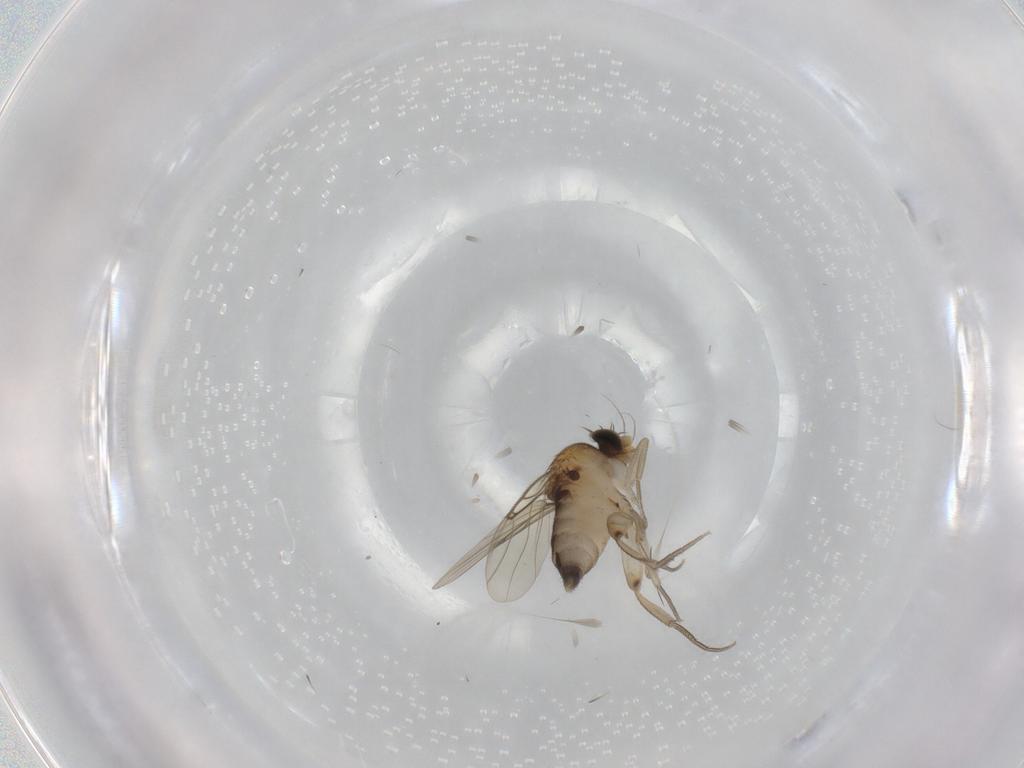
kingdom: Animalia
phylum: Arthropoda
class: Insecta
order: Diptera
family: Phoridae
